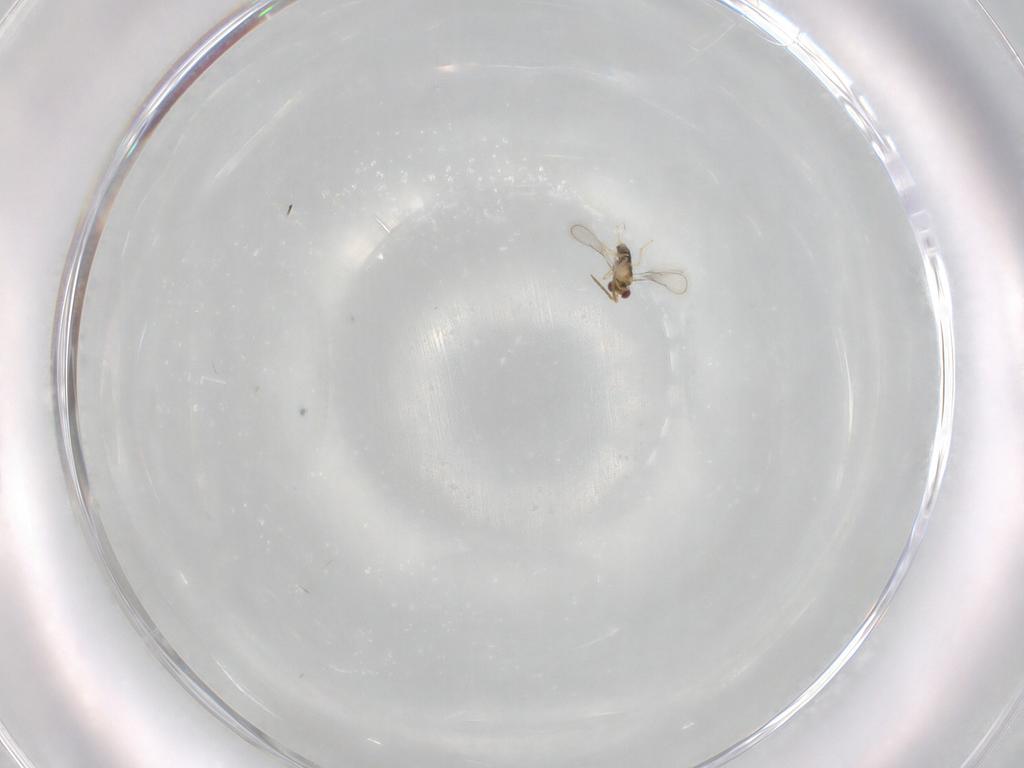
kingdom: Animalia
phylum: Arthropoda
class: Insecta
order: Hymenoptera
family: Aphelinidae
